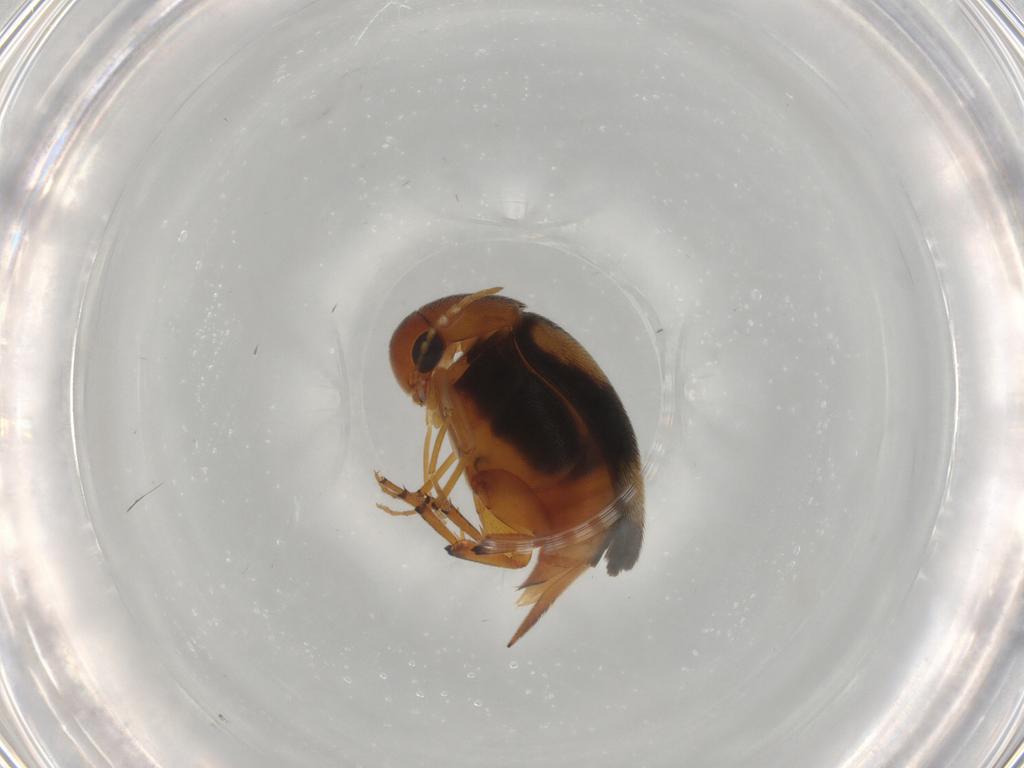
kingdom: Animalia
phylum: Arthropoda
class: Insecta
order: Coleoptera
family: Mordellidae
